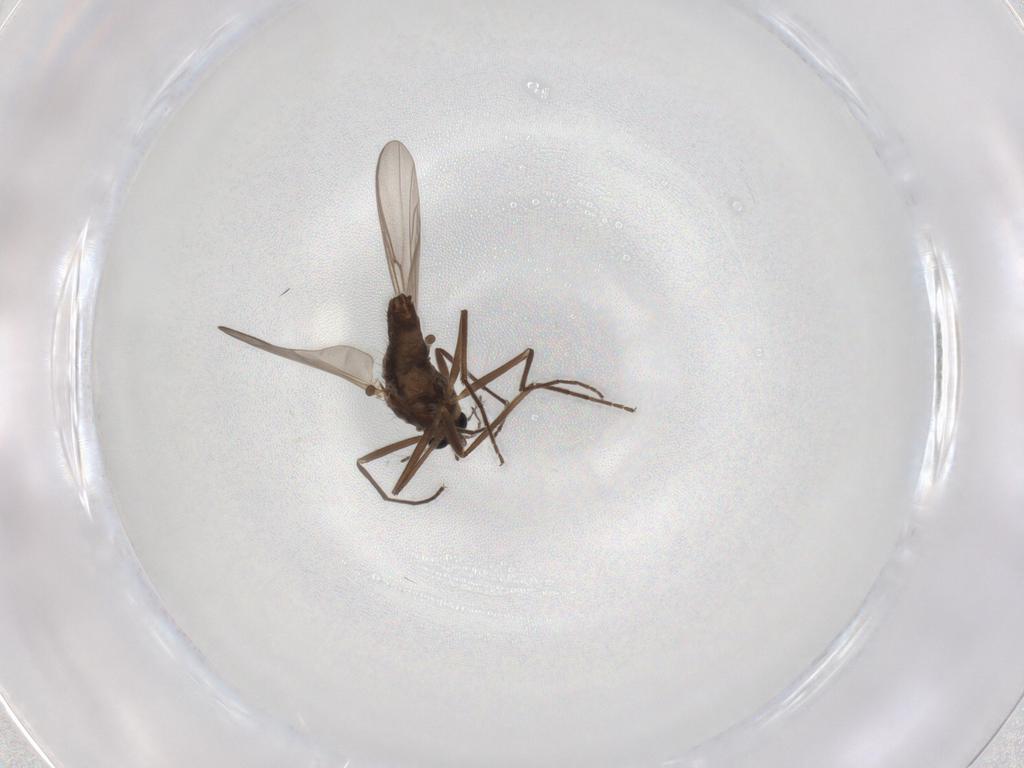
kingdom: Animalia
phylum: Arthropoda
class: Insecta
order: Diptera
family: Chironomidae
